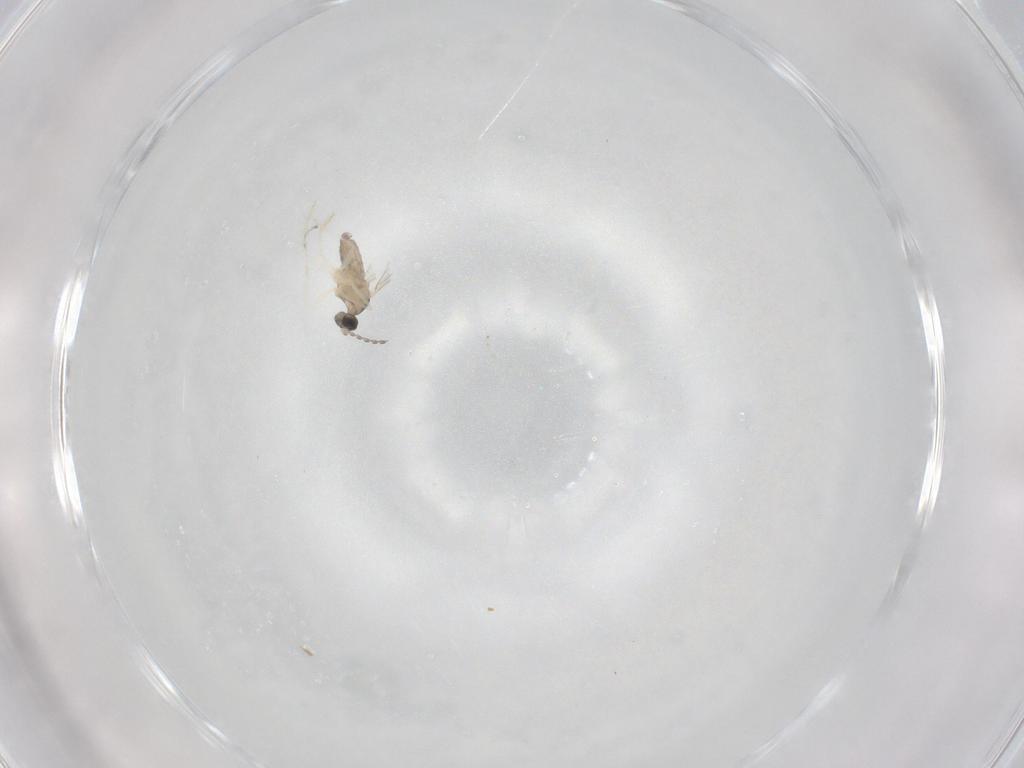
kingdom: Animalia
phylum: Arthropoda
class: Insecta
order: Diptera
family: Cecidomyiidae
